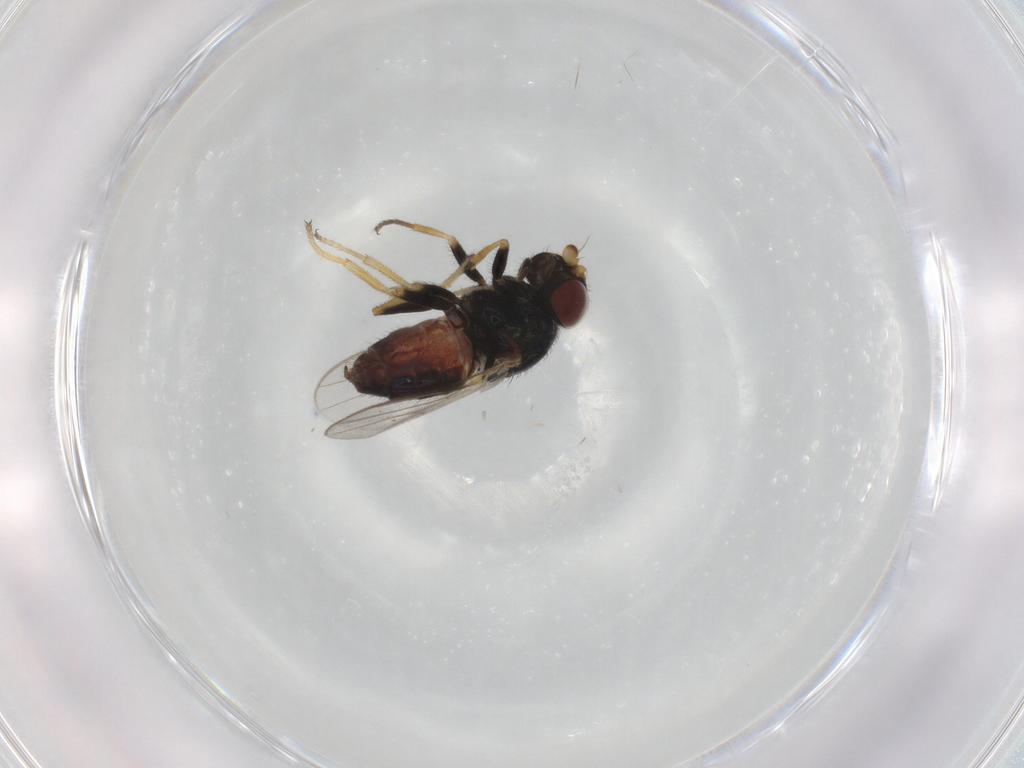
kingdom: Animalia
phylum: Arthropoda
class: Insecta
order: Diptera
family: Chloropidae
